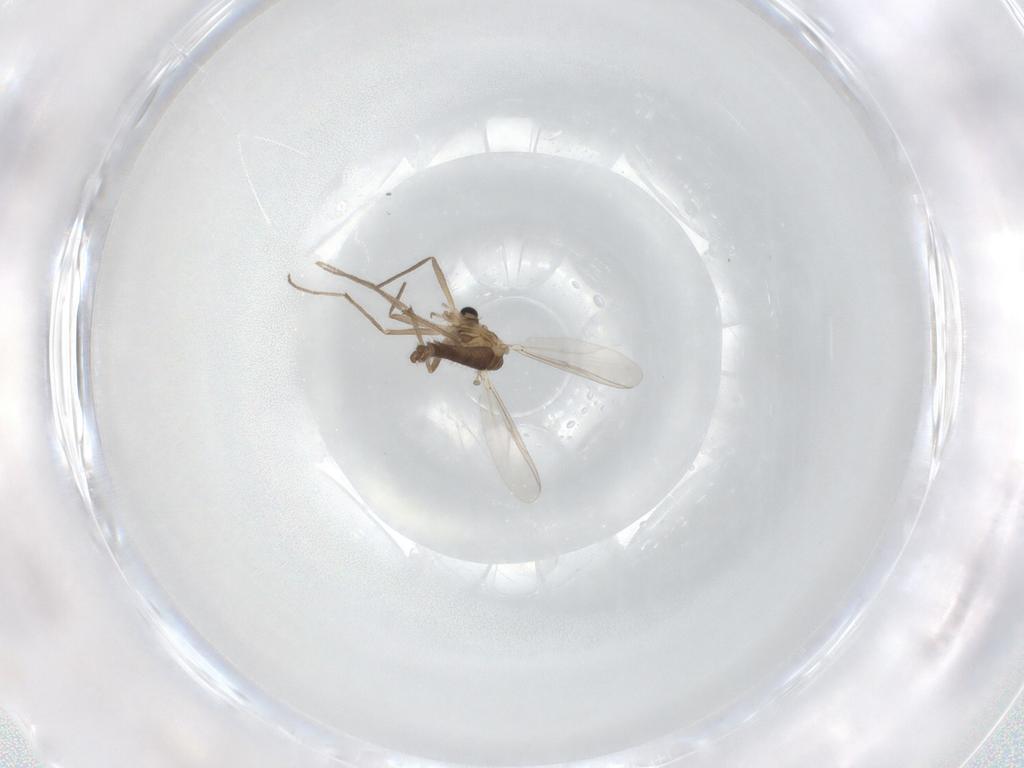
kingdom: Animalia
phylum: Arthropoda
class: Insecta
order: Diptera
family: Chironomidae
